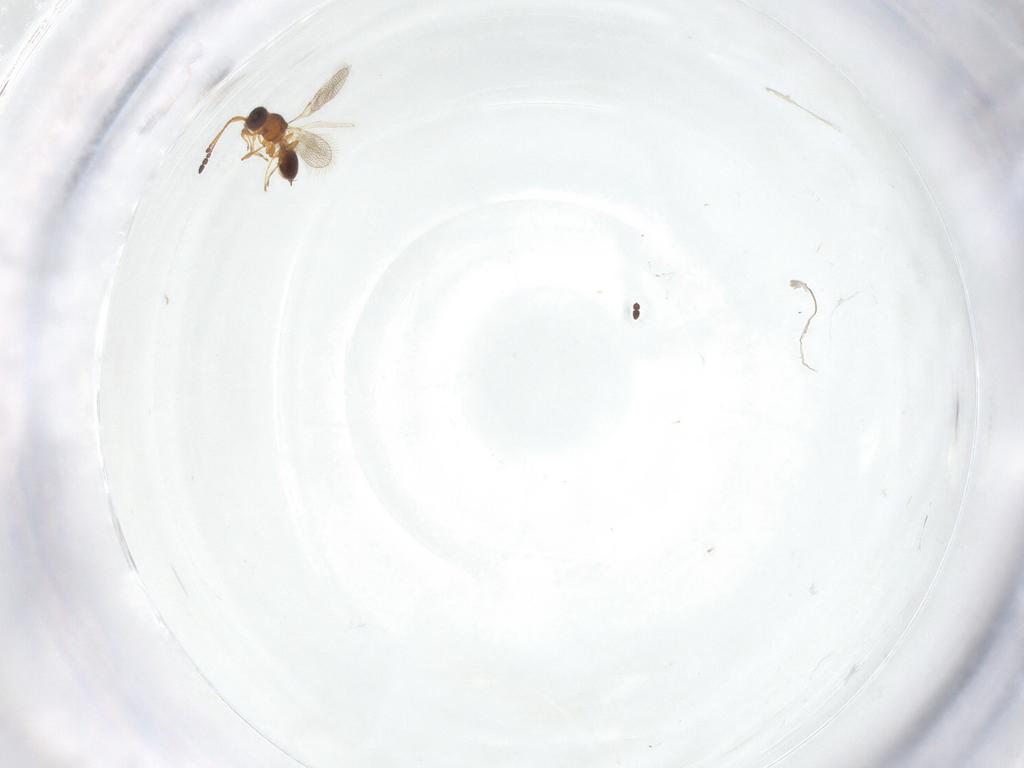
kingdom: Animalia
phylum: Arthropoda
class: Insecta
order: Hymenoptera
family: Diapriidae
